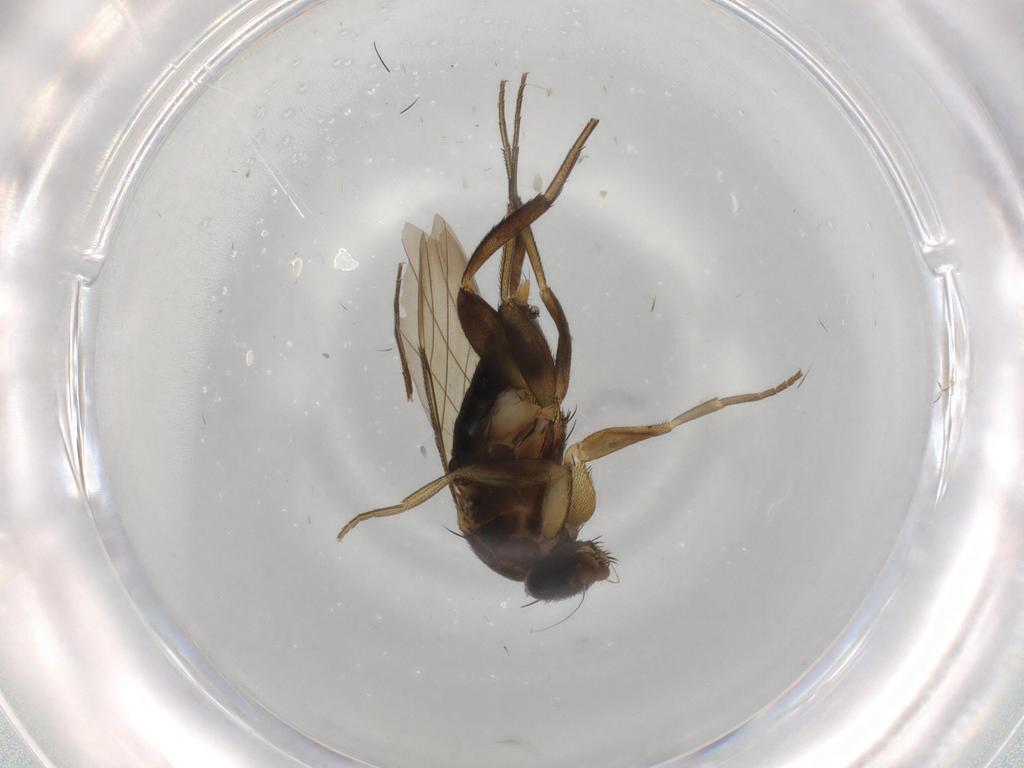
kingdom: Animalia
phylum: Arthropoda
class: Insecta
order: Diptera
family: Phoridae
